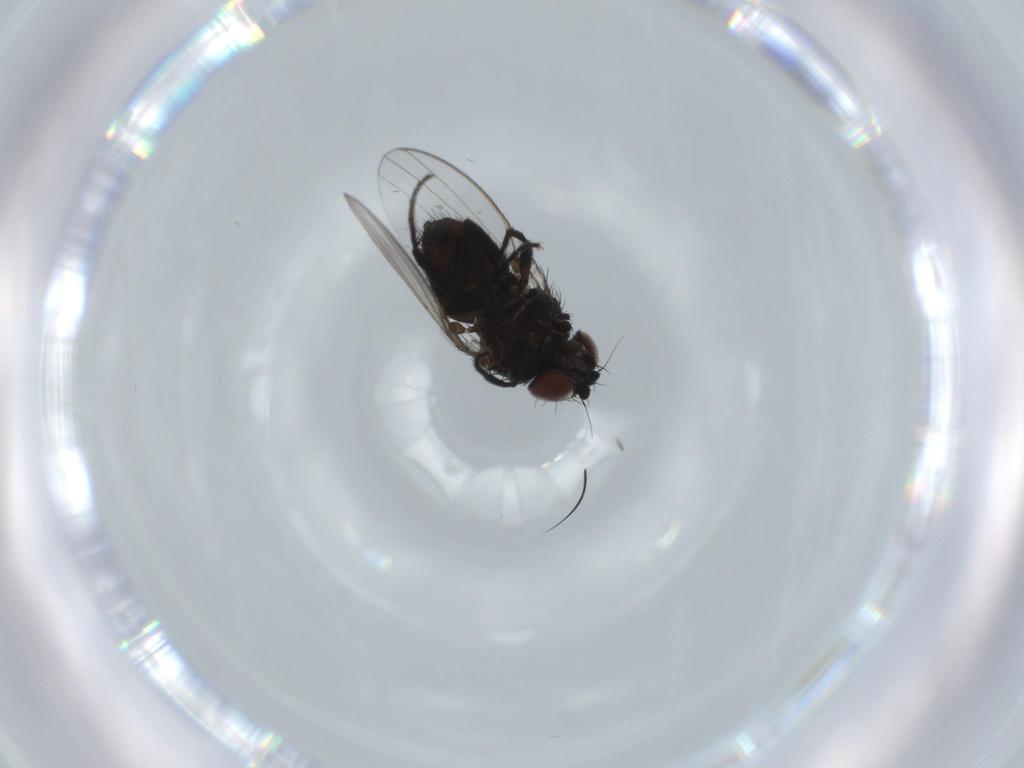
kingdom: Animalia
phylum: Arthropoda
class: Insecta
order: Diptera
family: Milichiidae
